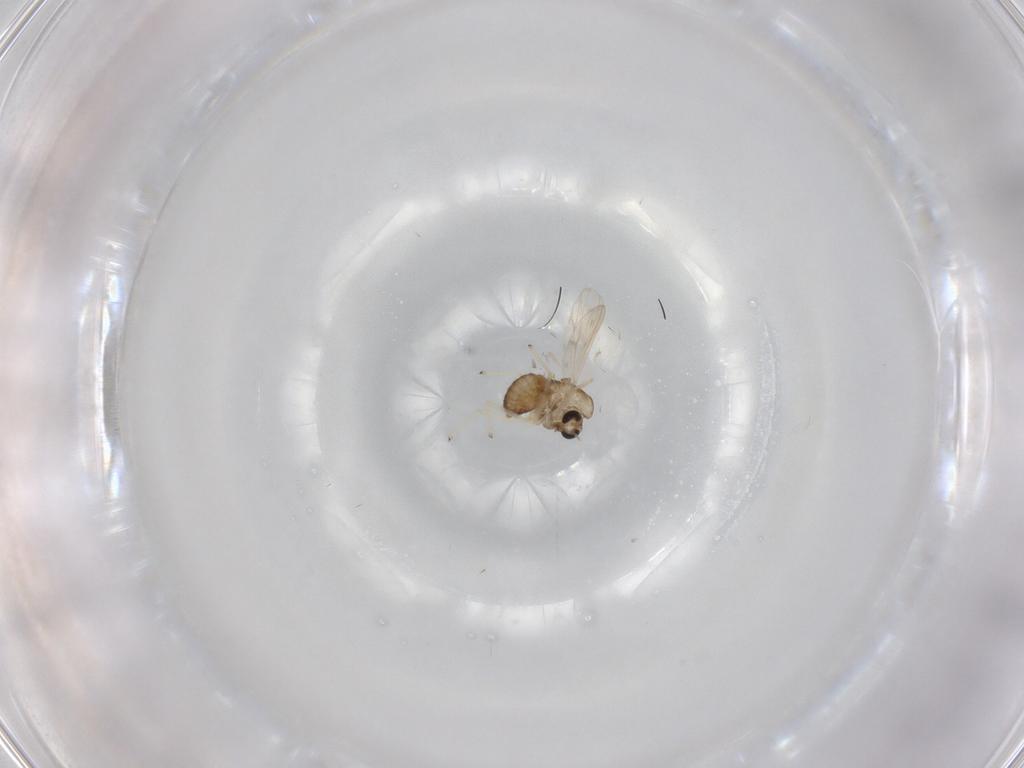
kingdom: Animalia
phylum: Arthropoda
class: Insecta
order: Diptera
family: Chironomidae
